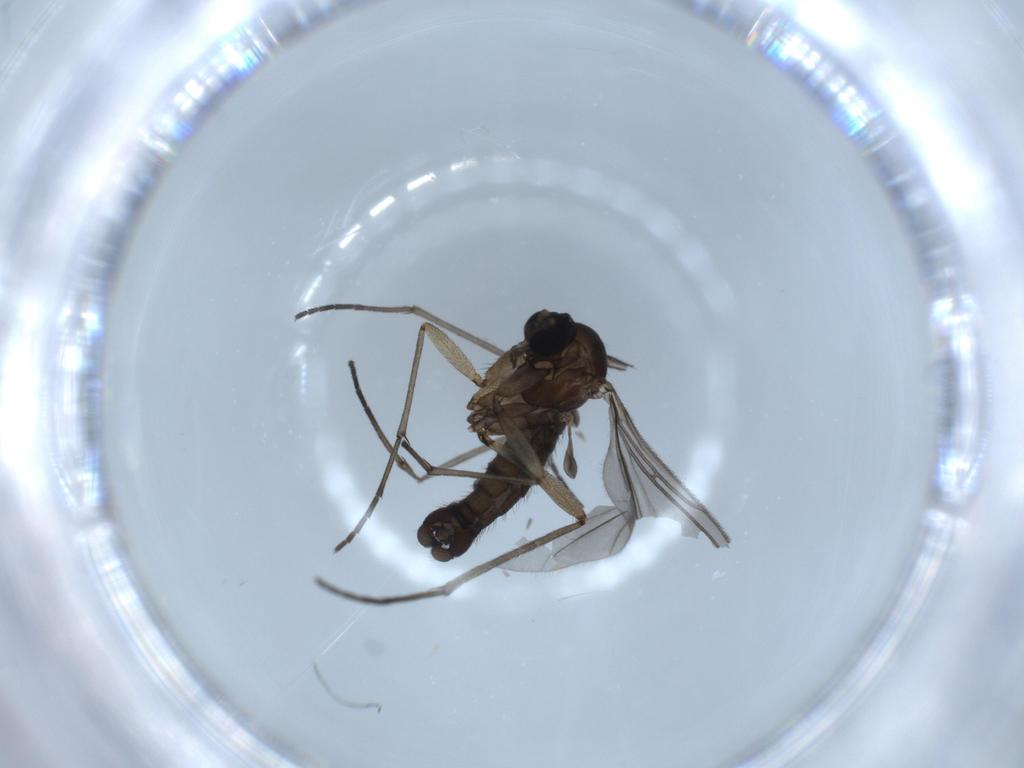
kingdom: Animalia
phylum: Arthropoda
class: Insecta
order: Diptera
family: Sciaridae
